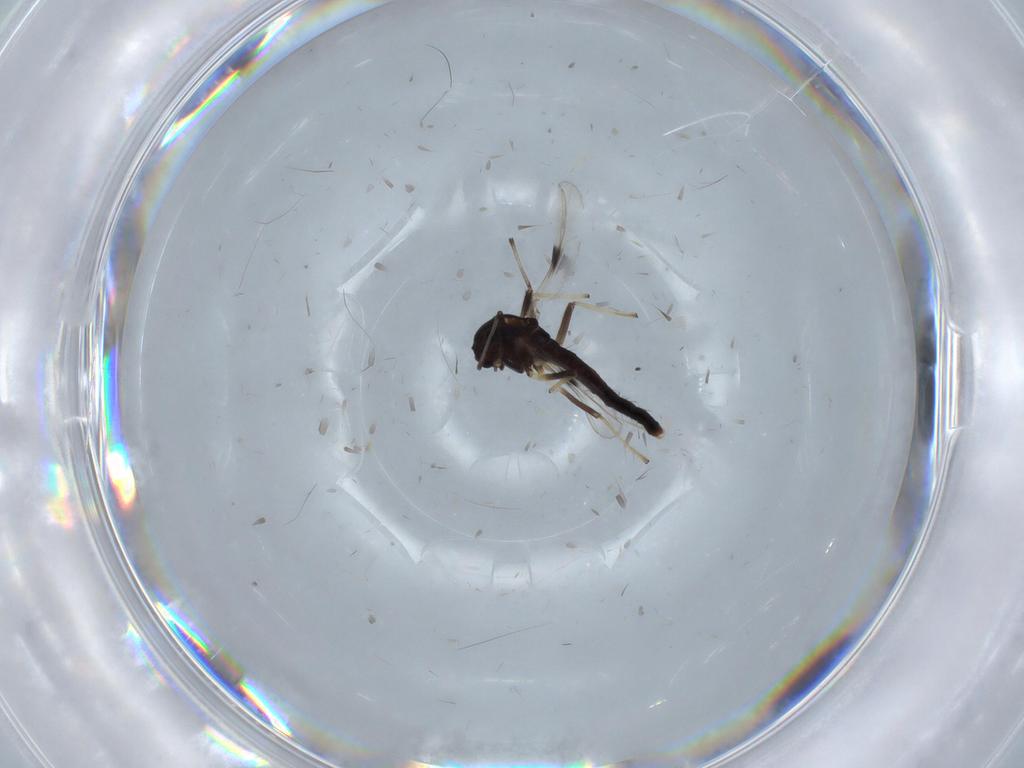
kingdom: Animalia
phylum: Arthropoda
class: Insecta
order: Diptera
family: Chironomidae
